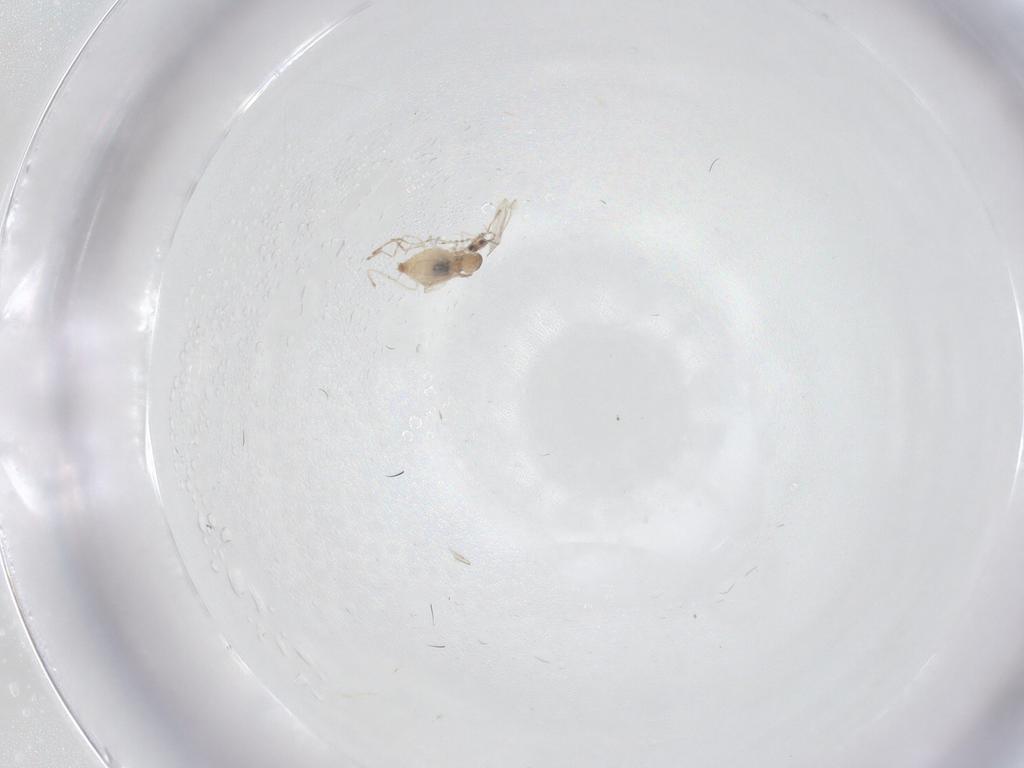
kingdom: Animalia
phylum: Arthropoda
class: Insecta
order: Diptera
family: Cecidomyiidae
